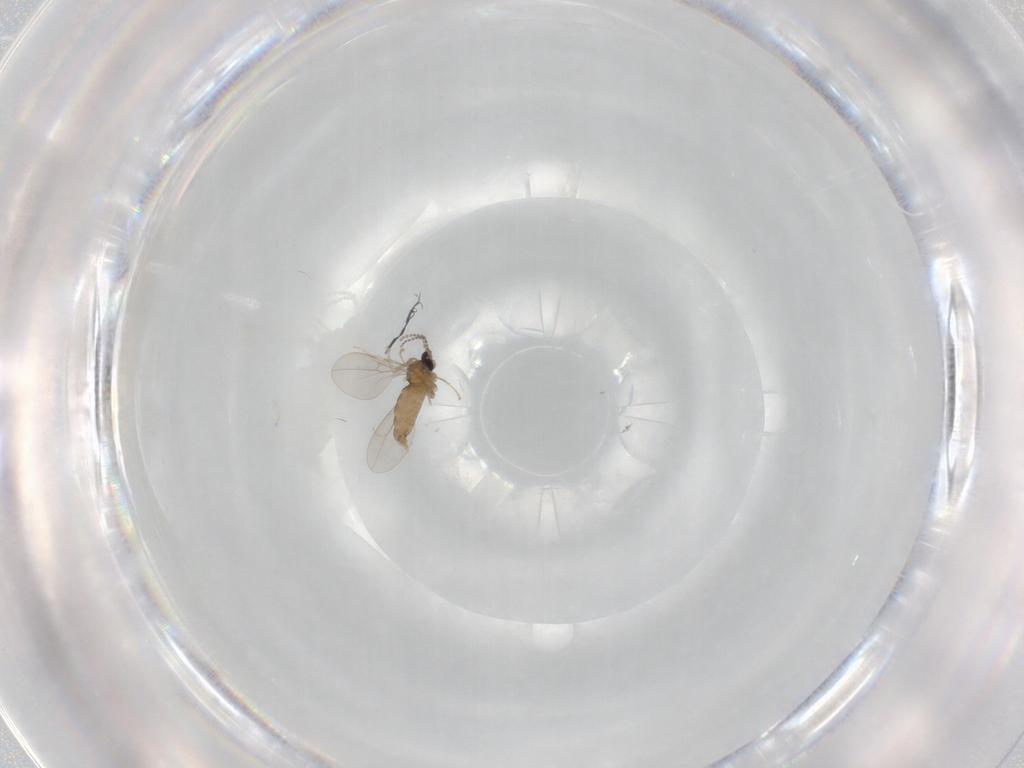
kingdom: Animalia
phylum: Arthropoda
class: Insecta
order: Diptera
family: Cecidomyiidae
